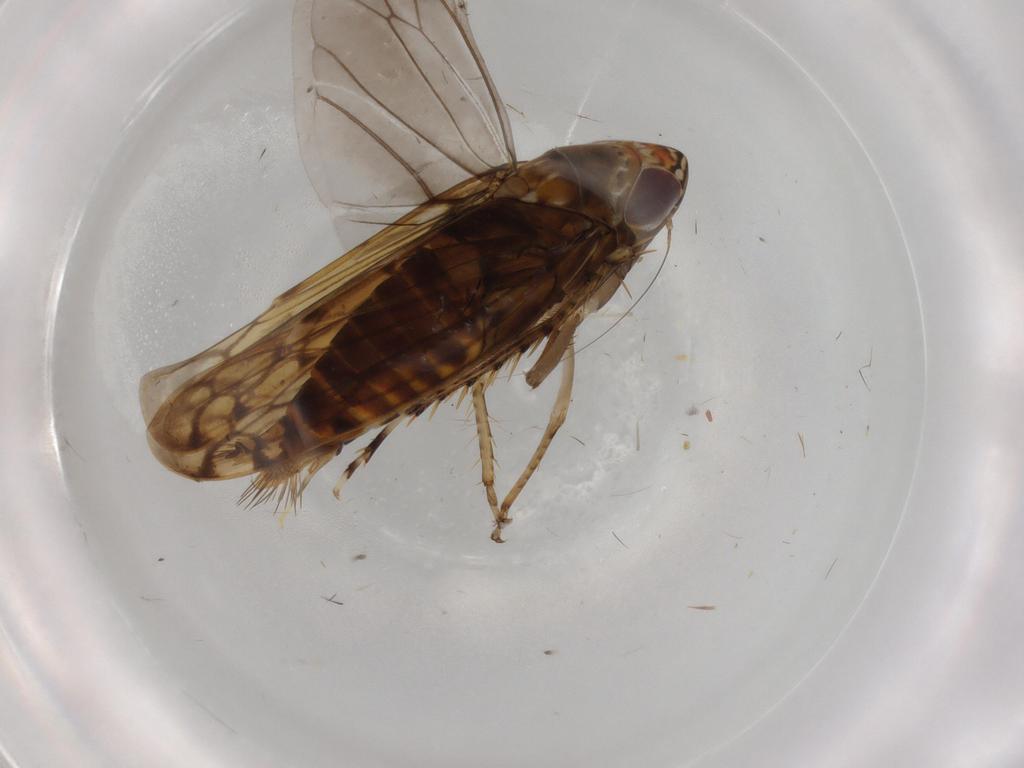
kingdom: Animalia
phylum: Arthropoda
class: Insecta
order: Hemiptera
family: Cicadellidae
